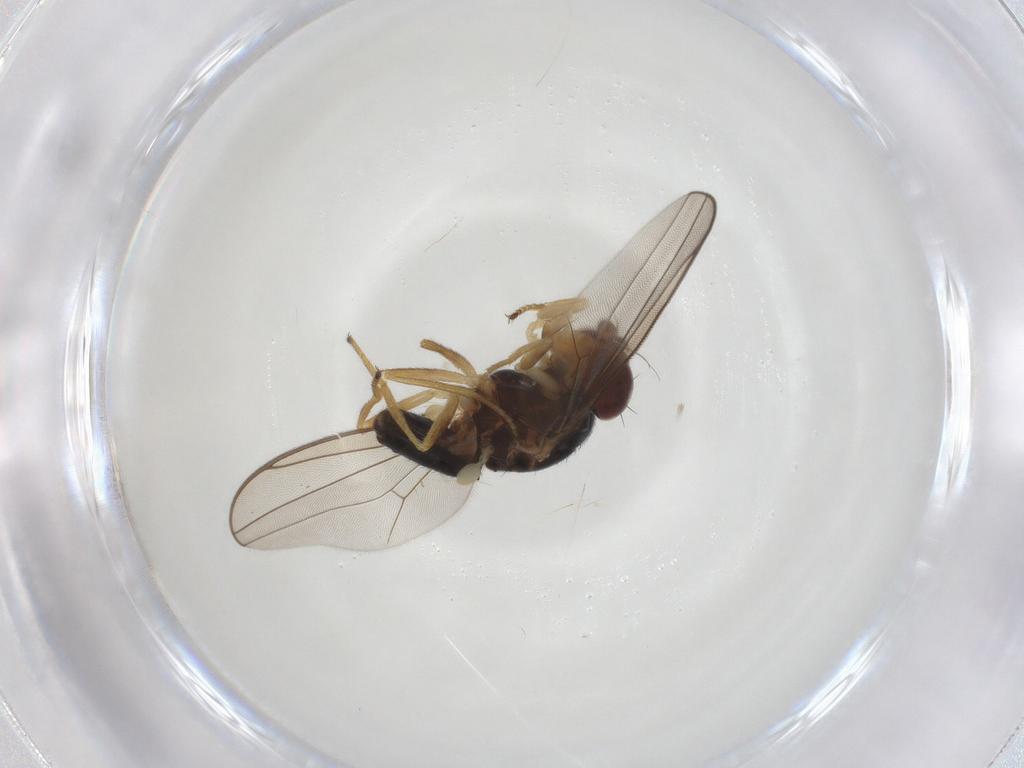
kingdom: Animalia
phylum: Arthropoda
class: Insecta
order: Diptera
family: Asteiidae
